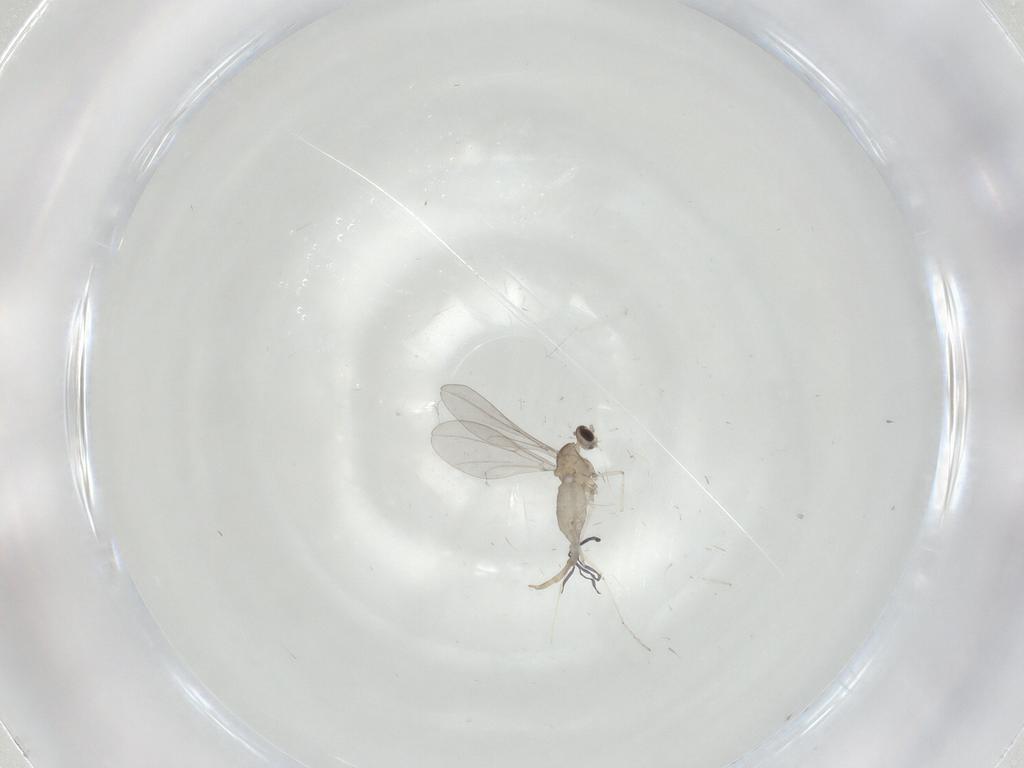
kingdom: Animalia
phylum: Arthropoda
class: Insecta
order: Diptera
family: Cecidomyiidae
